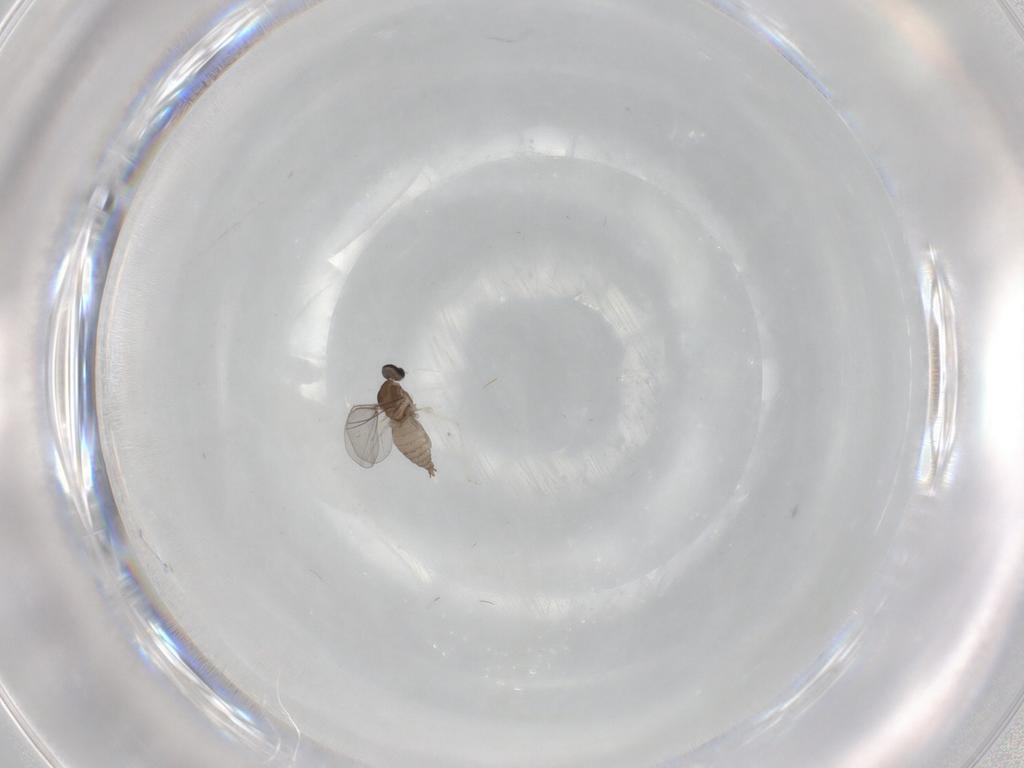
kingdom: Animalia
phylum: Arthropoda
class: Insecta
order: Diptera
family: Cecidomyiidae
